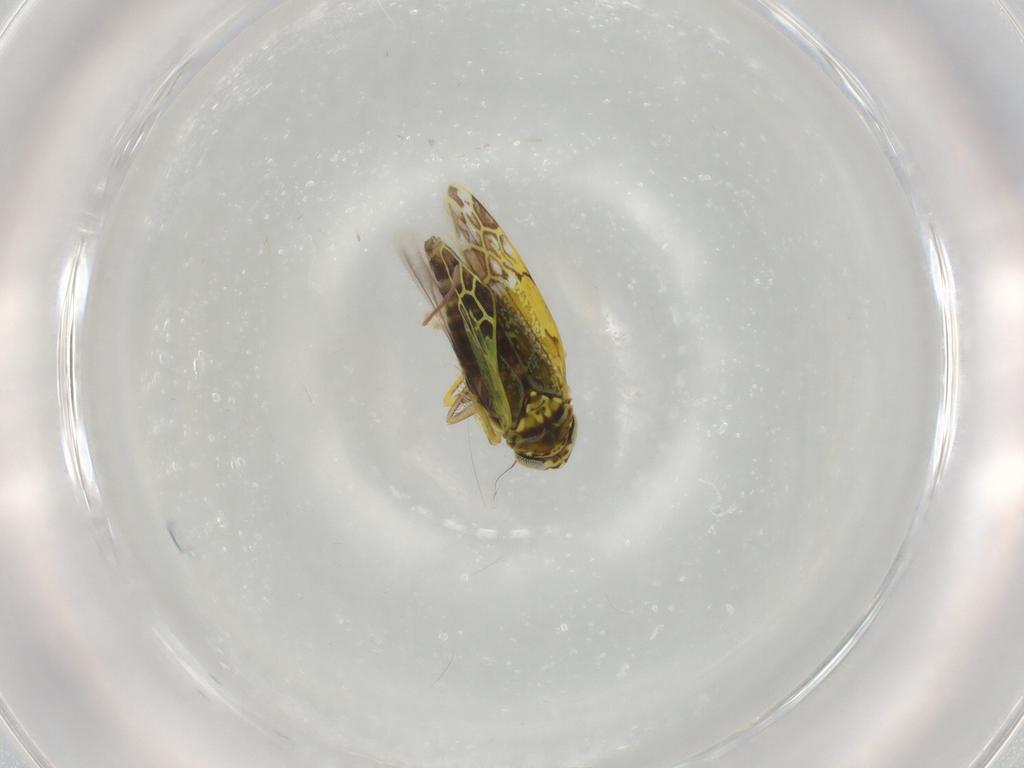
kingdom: Animalia
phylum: Arthropoda
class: Insecta
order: Hemiptera
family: Cicadellidae
